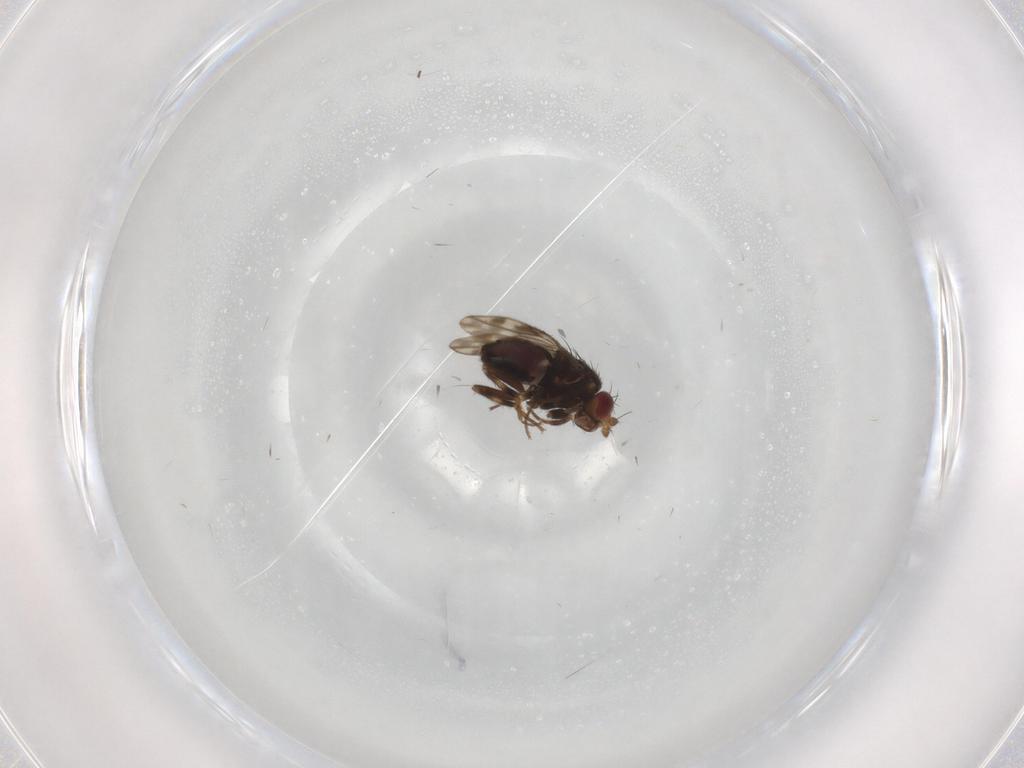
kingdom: Animalia
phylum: Arthropoda
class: Insecta
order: Diptera
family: Sphaeroceridae
